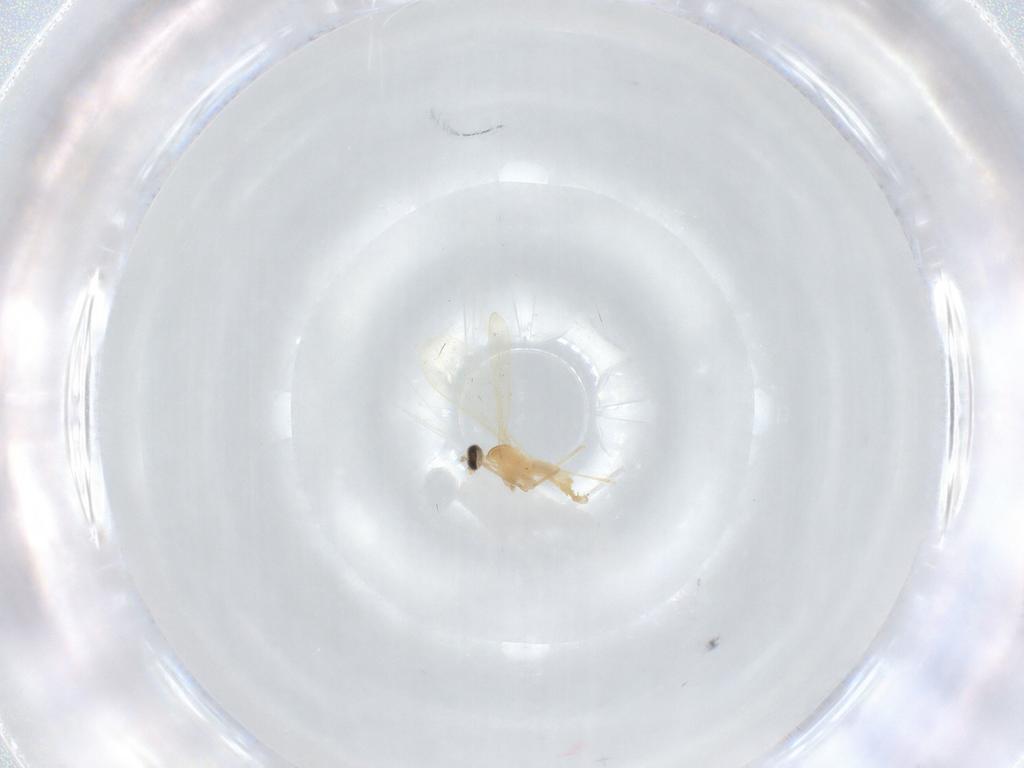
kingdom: Animalia
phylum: Arthropoda
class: Insecta
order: Diptera
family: Cecidomyiidae
